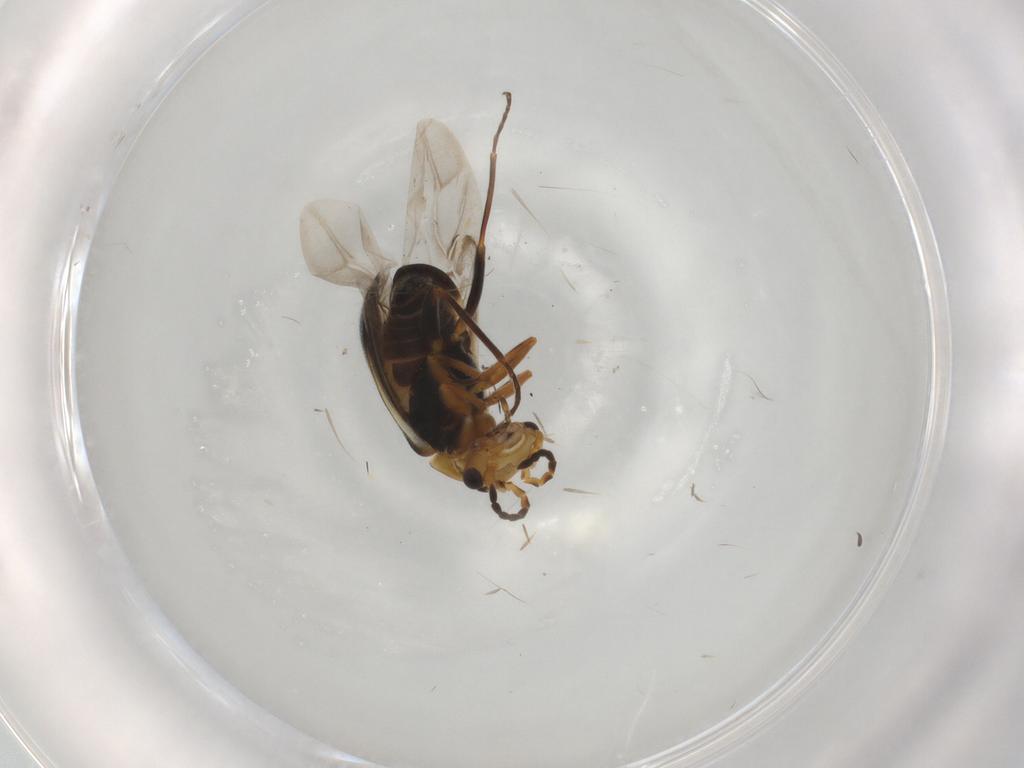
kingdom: Animalia
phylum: Arthropoda
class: Insecta
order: Coleoptera
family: Melyridae
